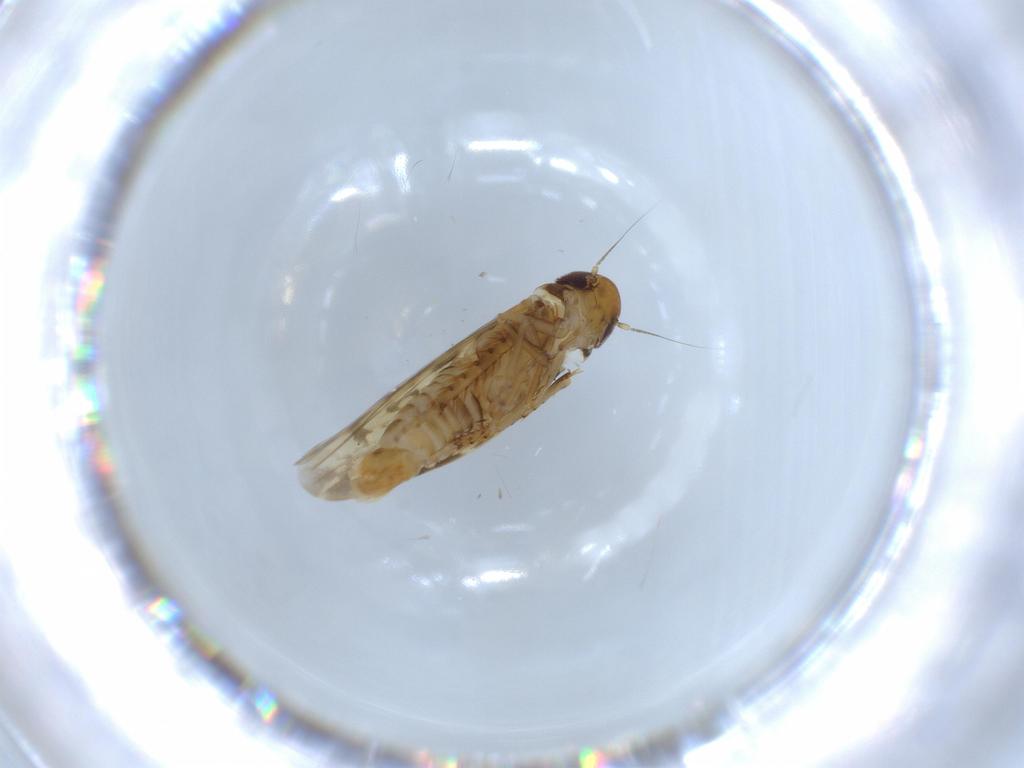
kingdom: Animalia
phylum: Arthropoda
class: Insecta
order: Hemiptera
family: Cicadellidae
